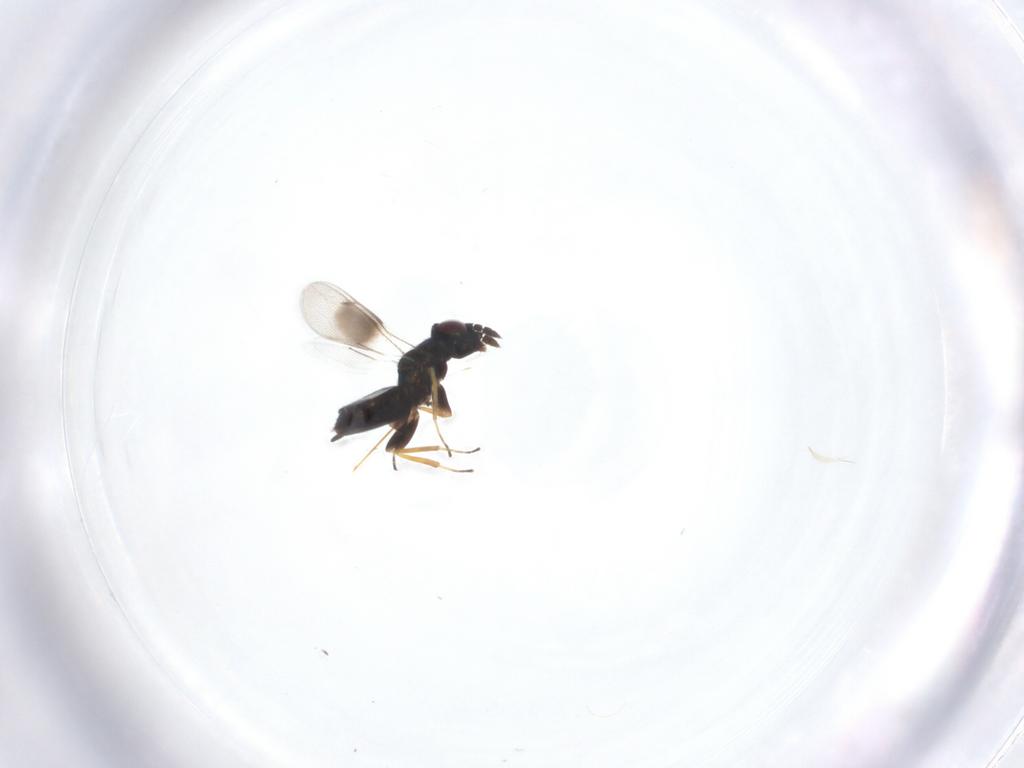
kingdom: Animalia
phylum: Arthropoda
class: Insecta
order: Hymenoptera
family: Eulophidae
